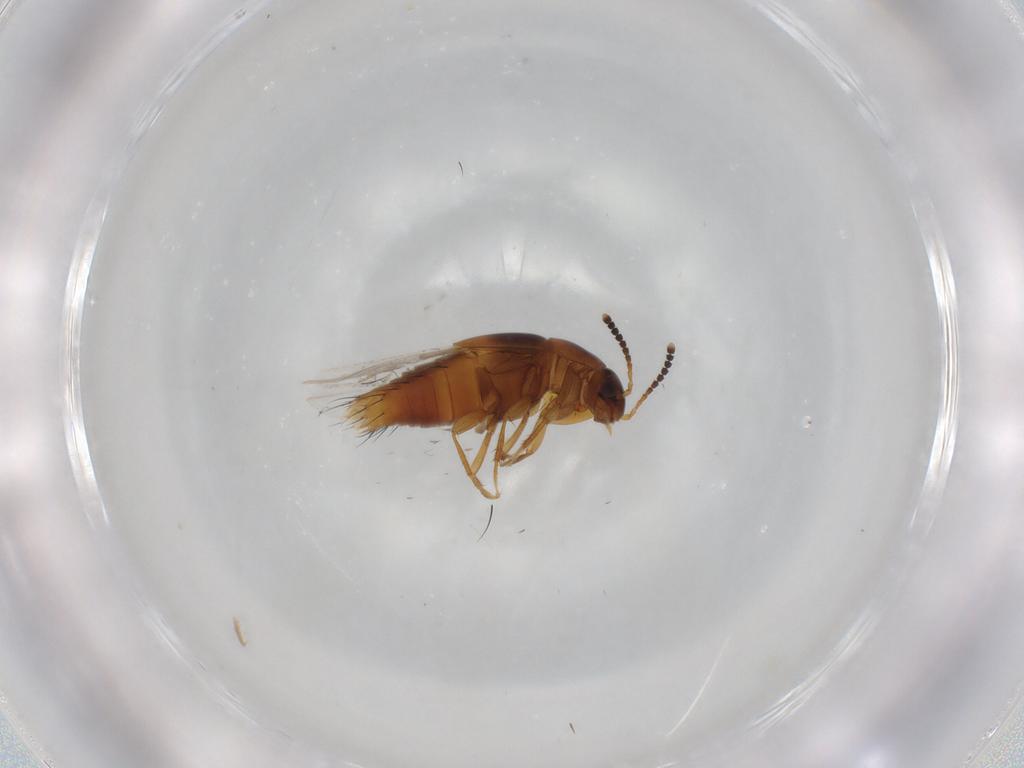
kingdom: Animalia
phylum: Arthropoda
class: Insecta
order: Coleoptera
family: Staphylinidae
